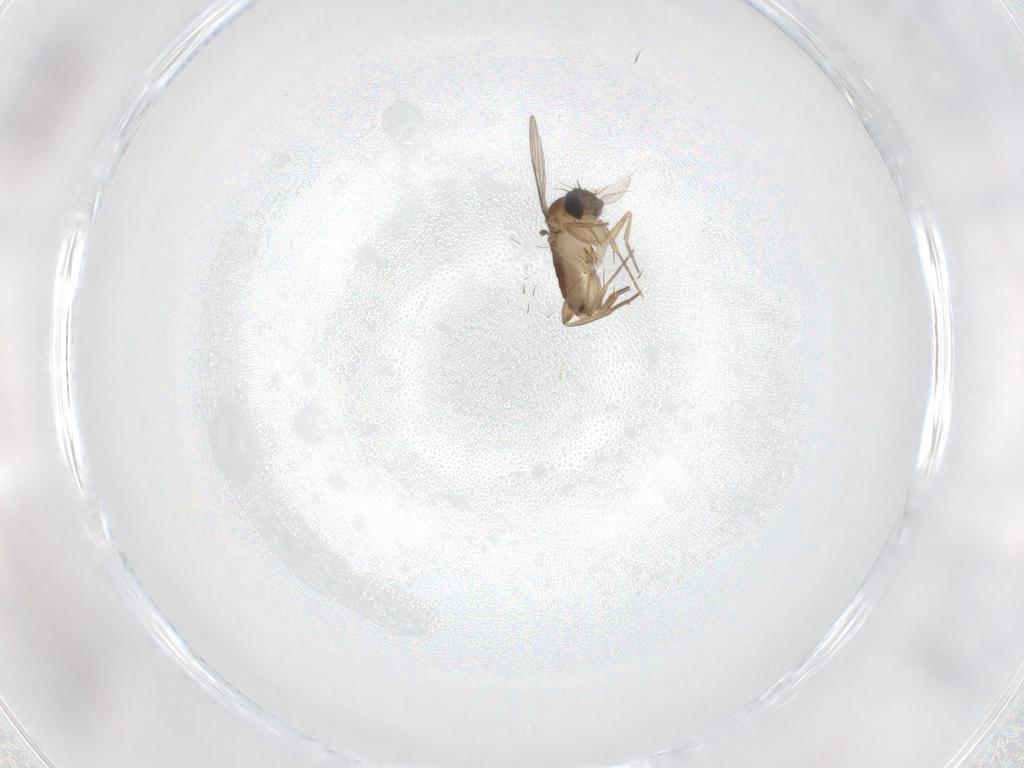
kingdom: Animalia
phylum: Arthropoda
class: Insecta
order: Diptera
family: Phoridae
